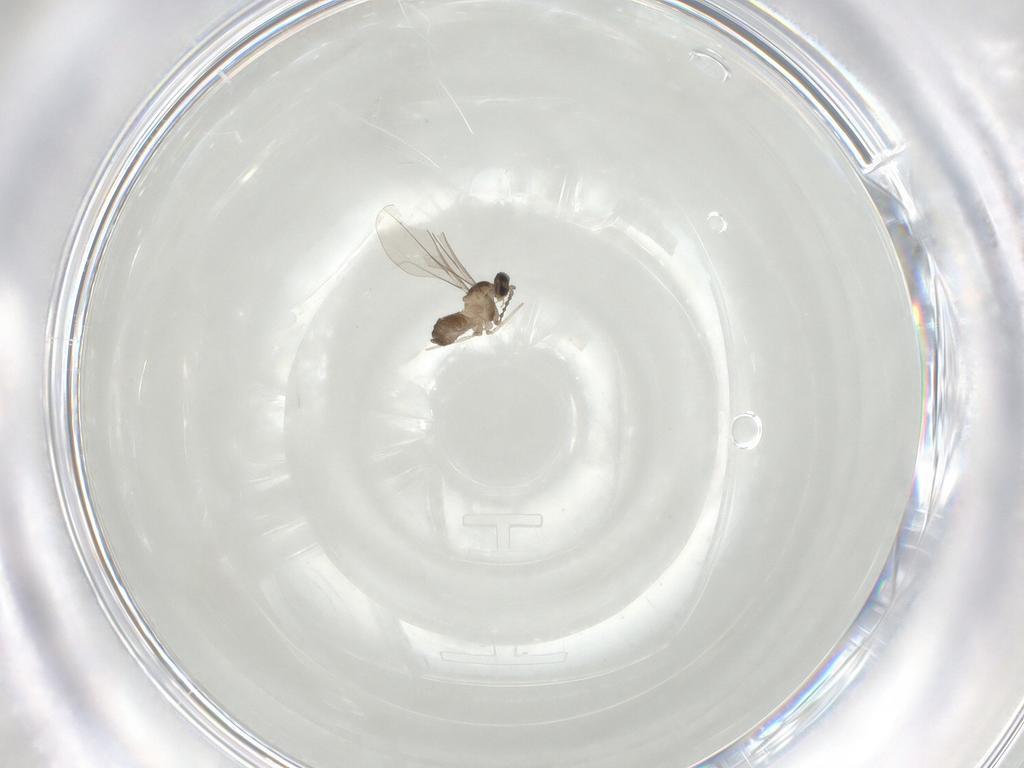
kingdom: Animalia
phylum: Arthropoda
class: Insecta
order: Diptera
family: Cecidomyiidae
